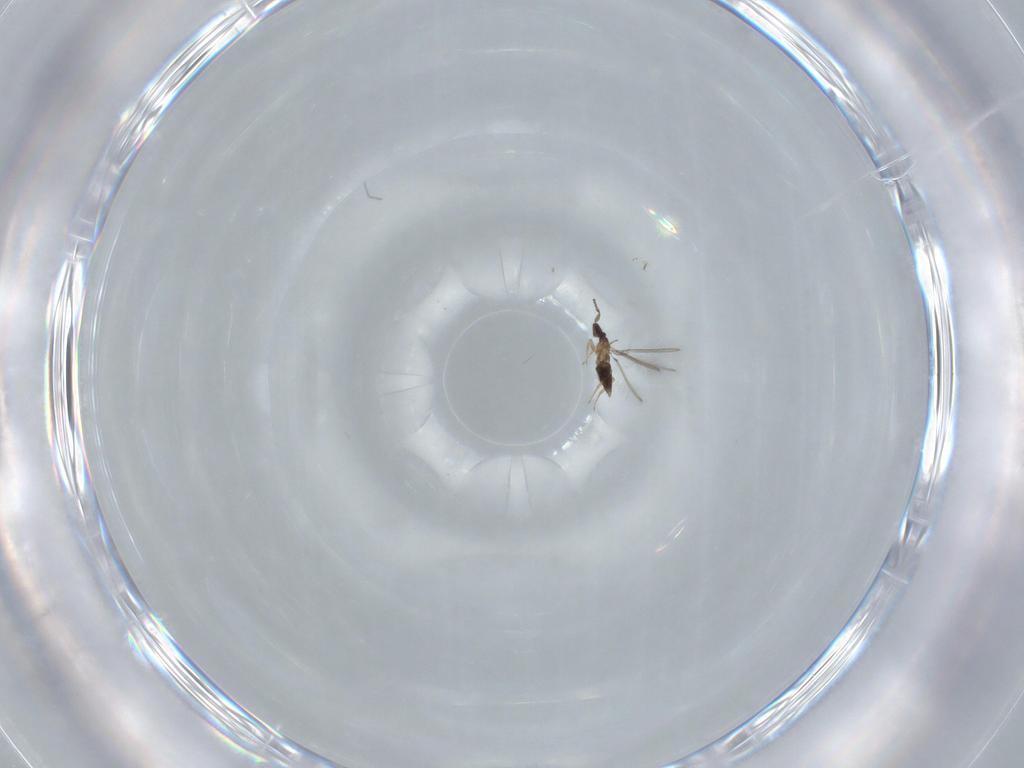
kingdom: Animalia
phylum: Arthropoda
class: Insecta
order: Hymenoptera
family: Mymaridae
